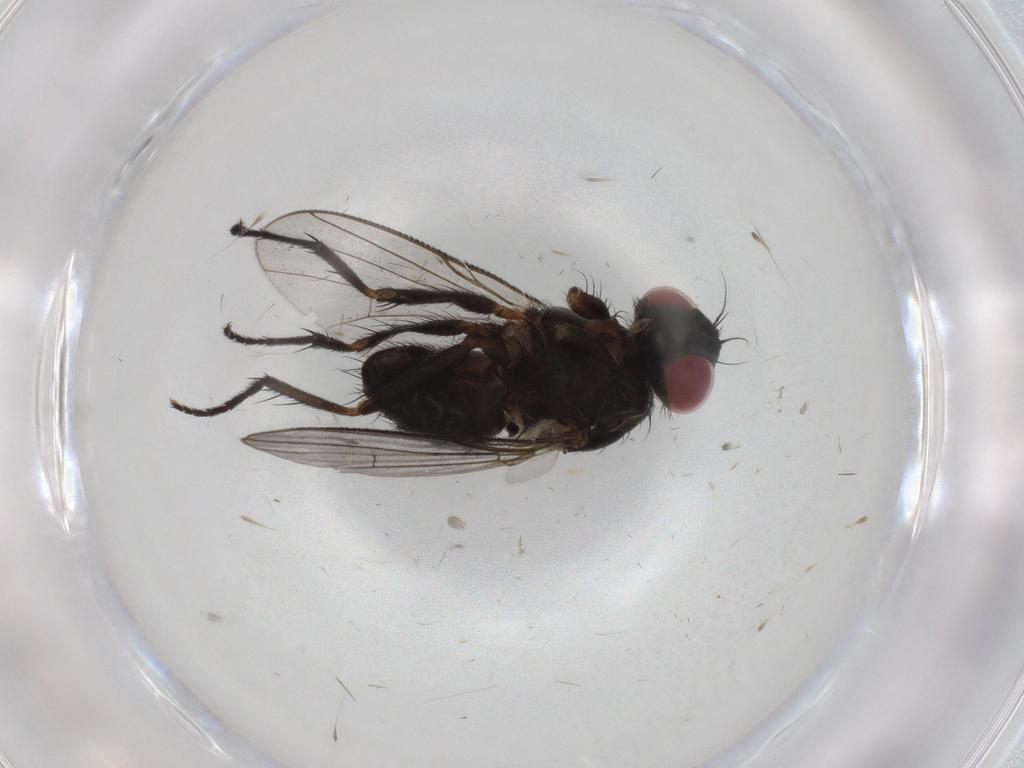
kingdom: Animalia
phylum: Arthropoda
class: Insecta
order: Diptera
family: Muscidae
